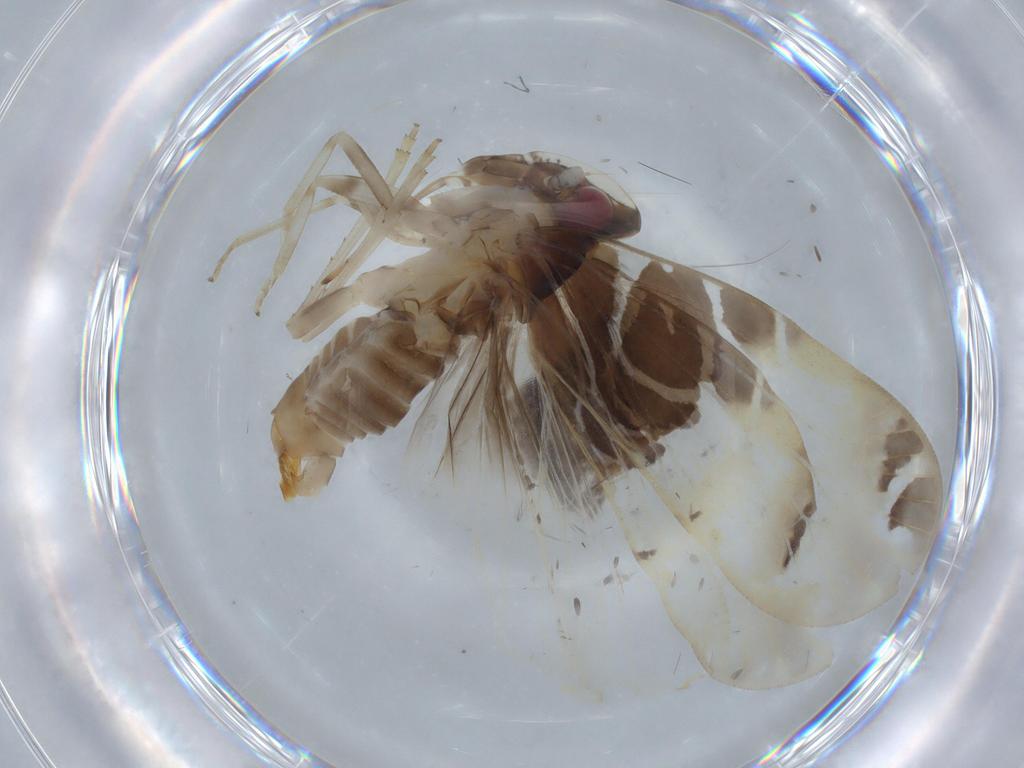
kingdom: Animalia
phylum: Arthropoda
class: Insecta
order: Hemiptera
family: Cixiidae
